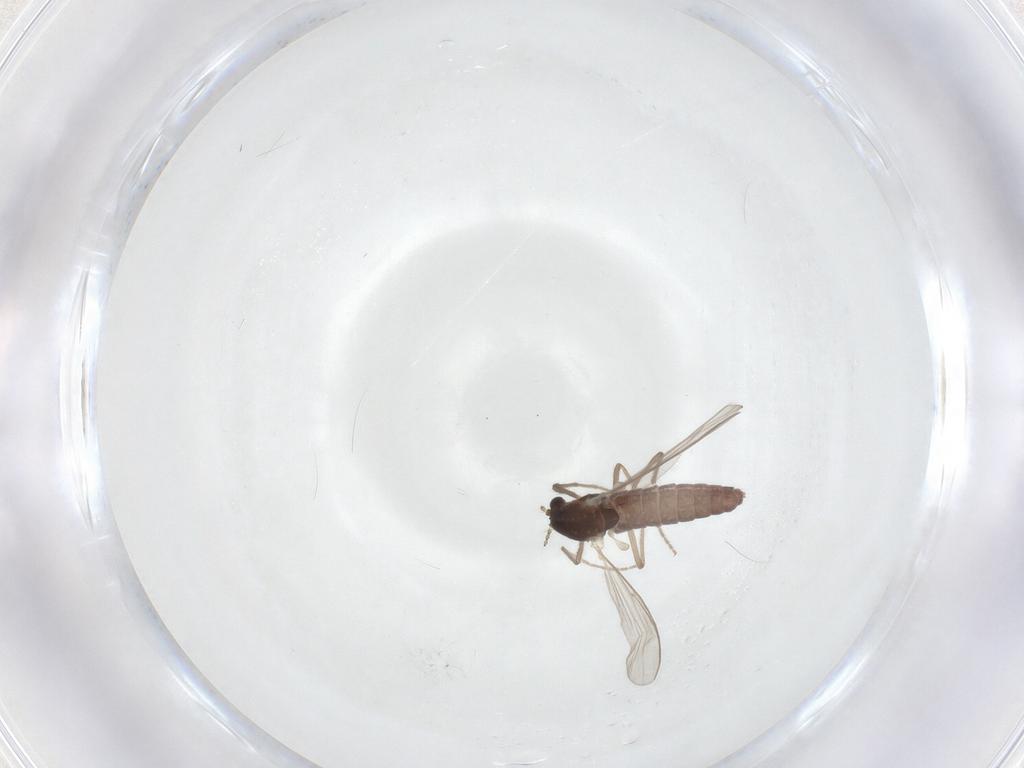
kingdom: Animalia
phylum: Arthropoda
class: Insecta
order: Diptera
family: Chironomidae
